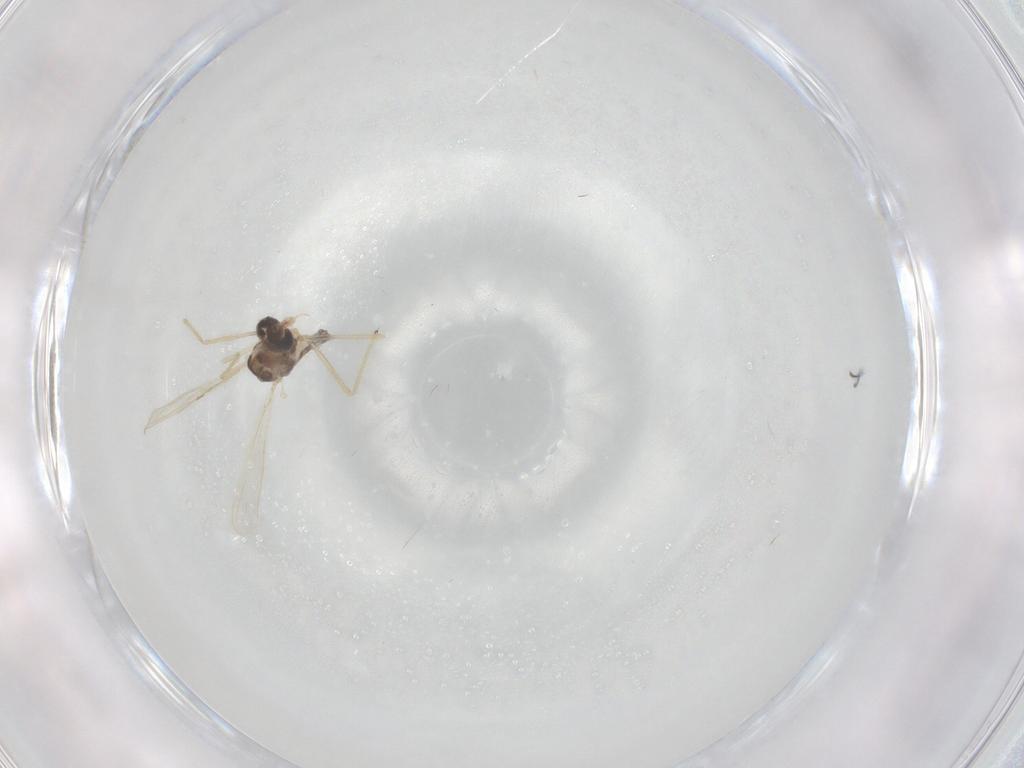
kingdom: Animalia
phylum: Arthropoda
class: Insecta
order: Diptera
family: Chironomidae
